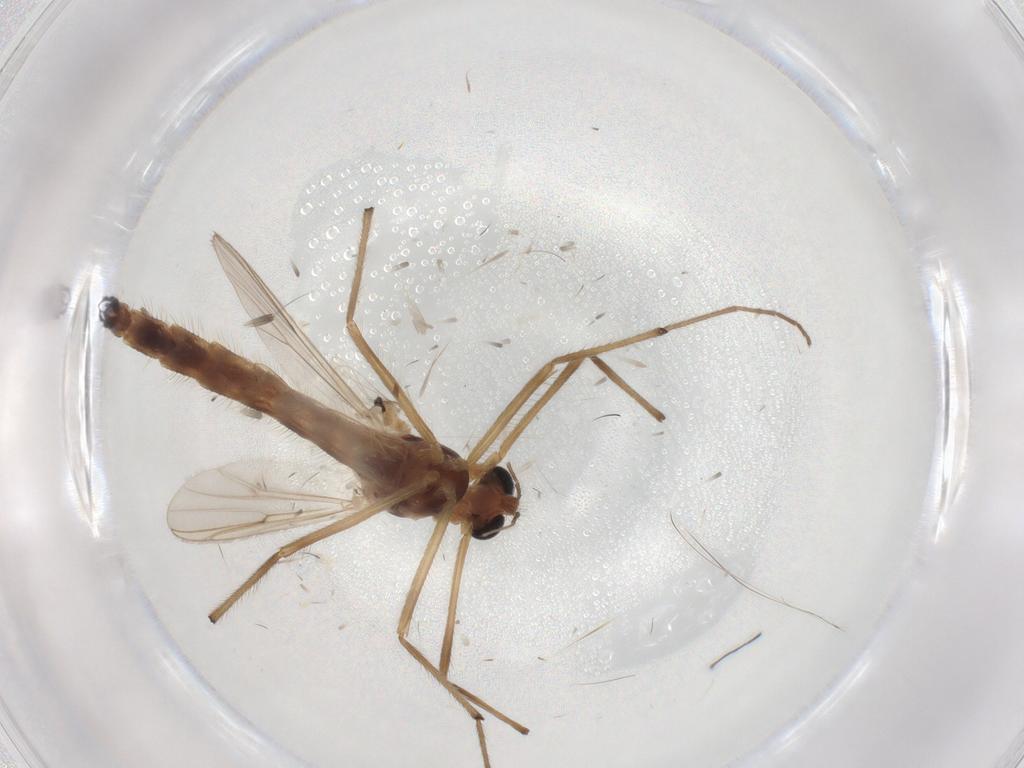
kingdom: Animalia
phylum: Arthropoda
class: Insecta
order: Diptera
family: Chironomidae
